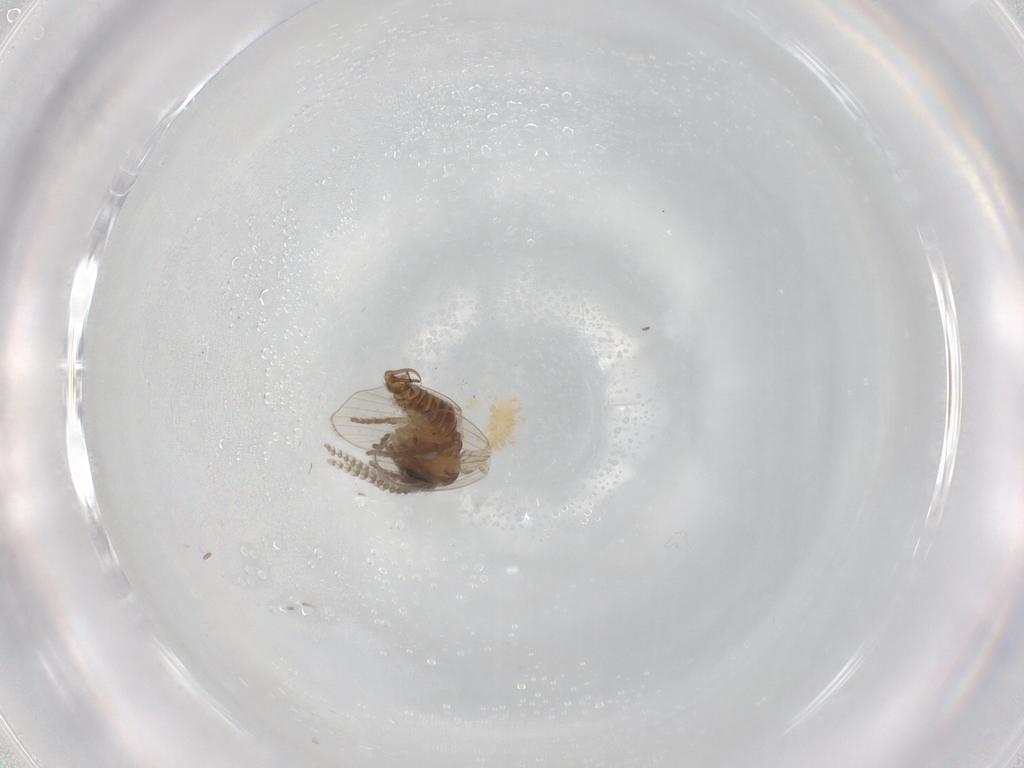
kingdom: Animalia
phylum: Arthropoda
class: Insecta
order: Diptera
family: Psychodidae
